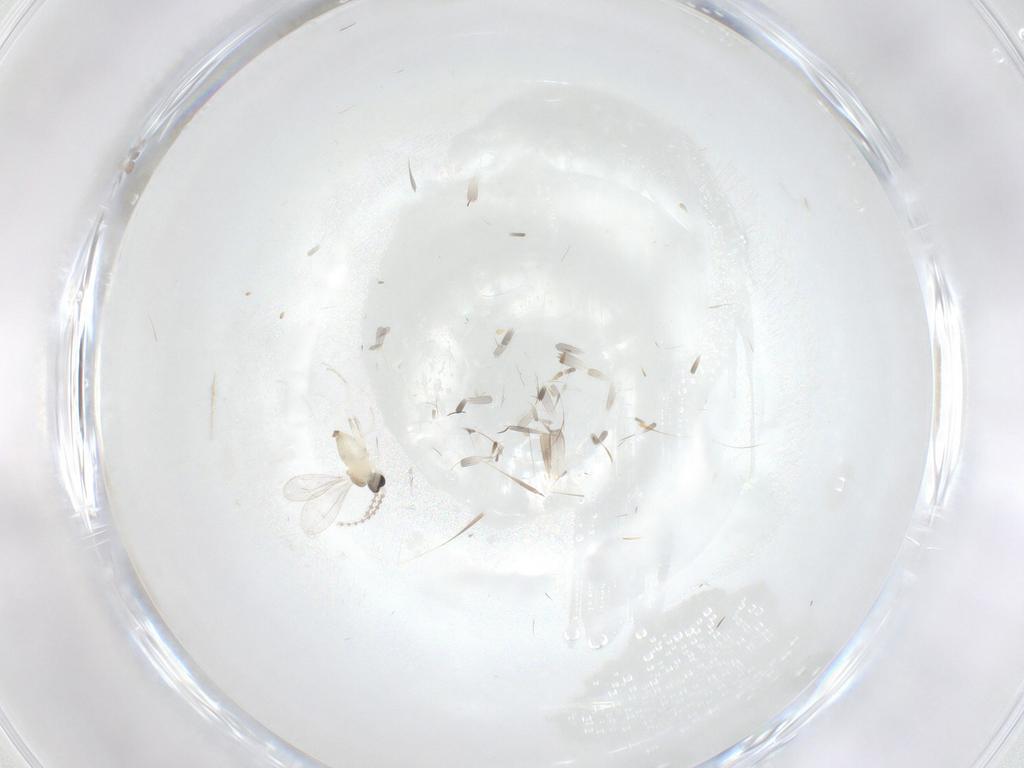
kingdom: Animalia
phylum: Arthropoda
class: Insecta
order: Diptera
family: Cecidomyiidae
